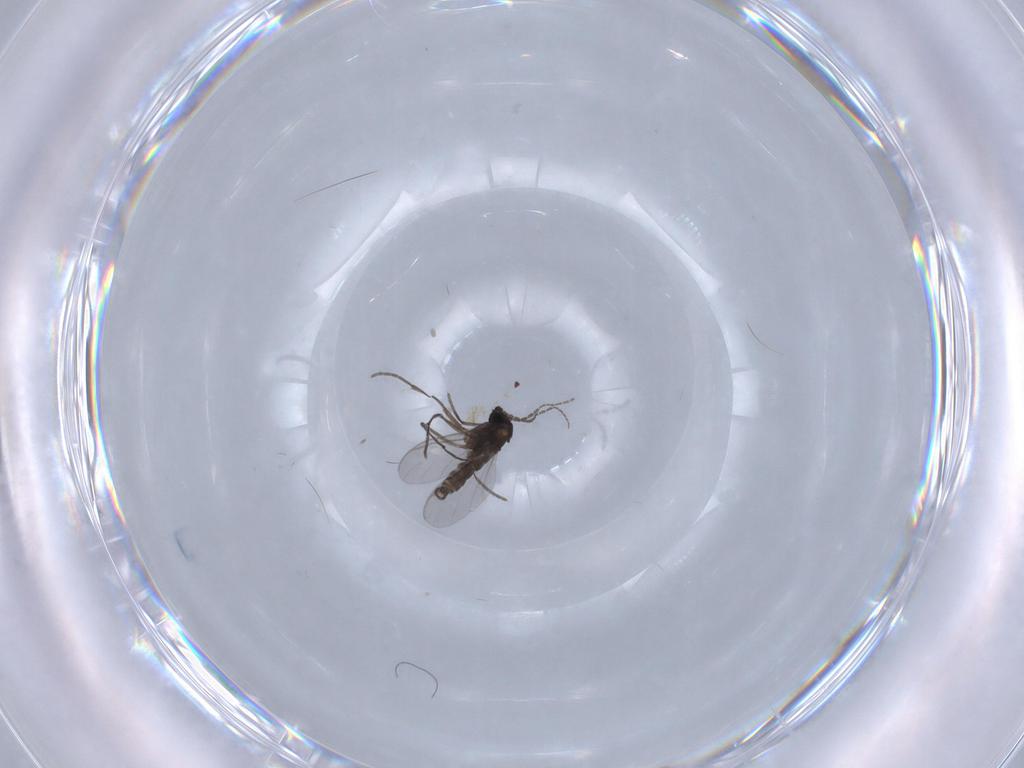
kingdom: Animalia
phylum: Arthropoda
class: Insecta
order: Diptera
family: Sciaridae
